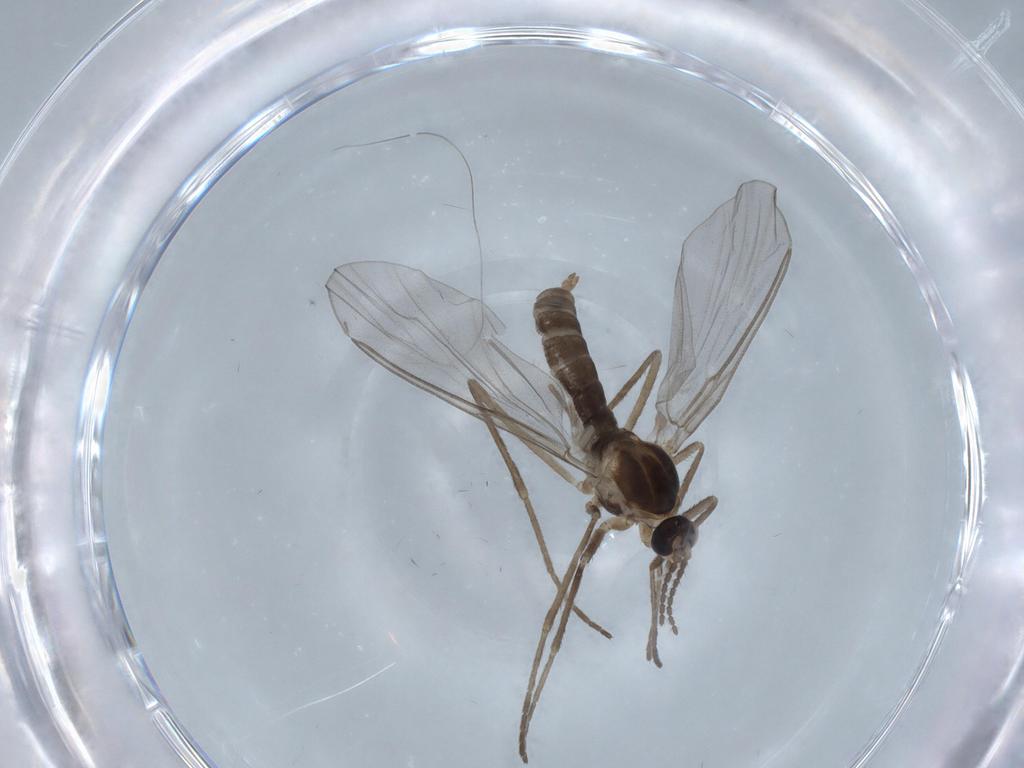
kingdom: Animalia
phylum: Arthropoda
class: Insecta
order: Diptera
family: Cecidomyiidae
